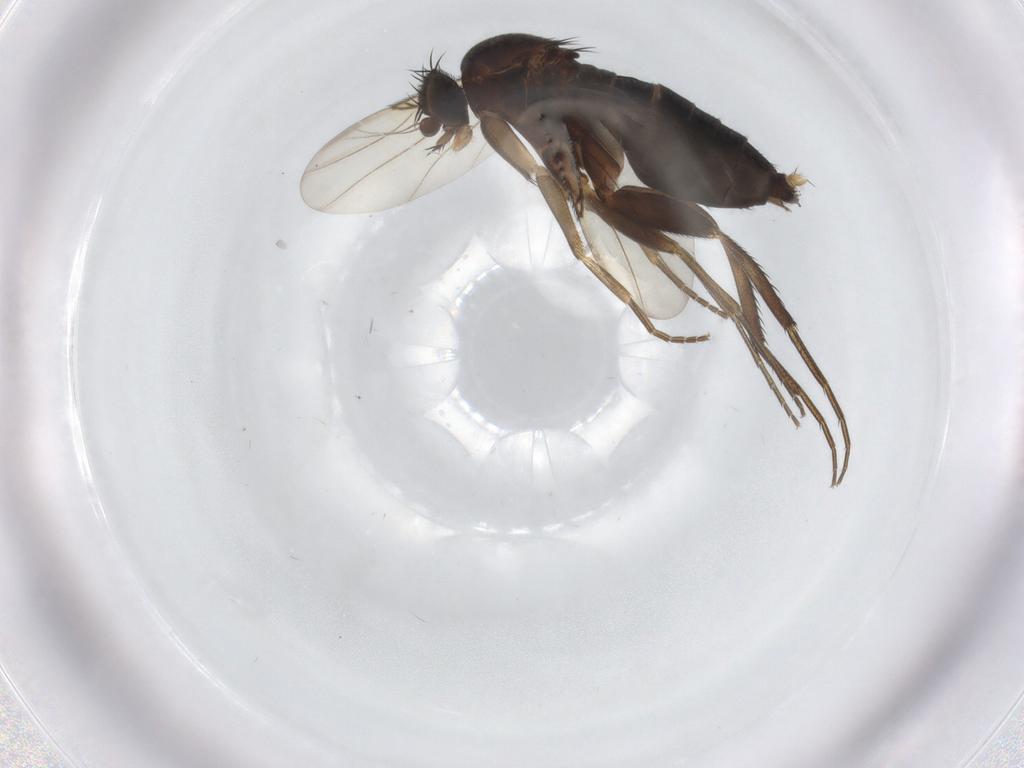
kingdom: Animalia
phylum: Arthropoda
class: Insecta
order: Diptera
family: Phoridae
